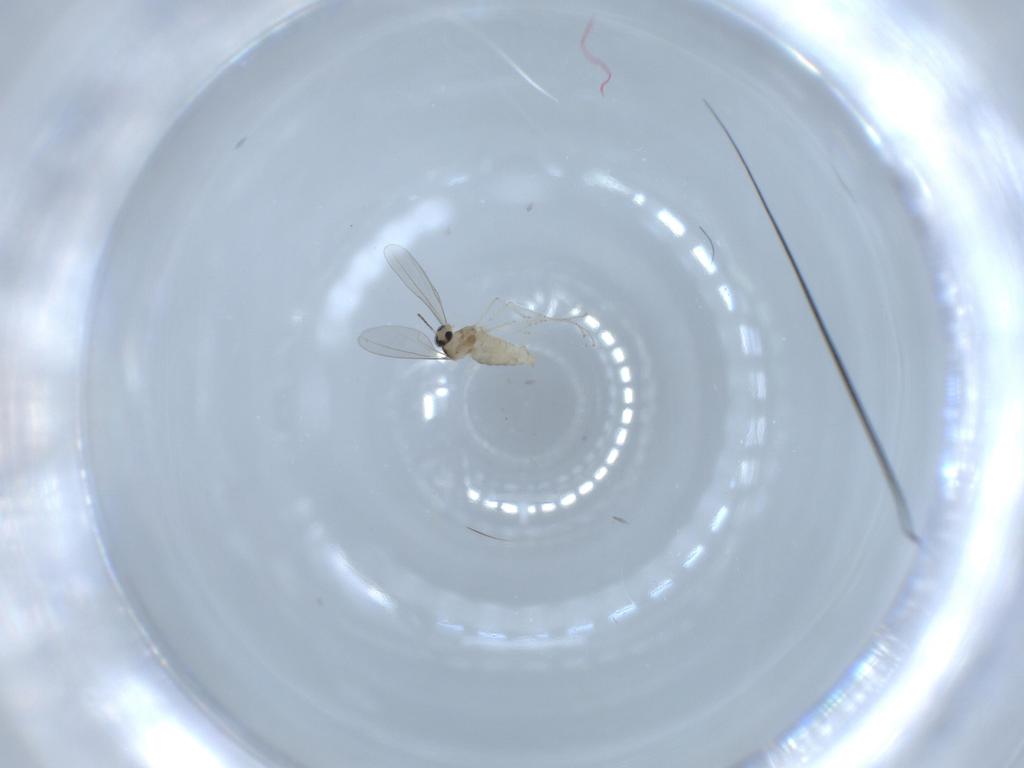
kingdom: Animalia
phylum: Arthropoda
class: Insecta
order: Diptera
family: Cecidomyiidae
